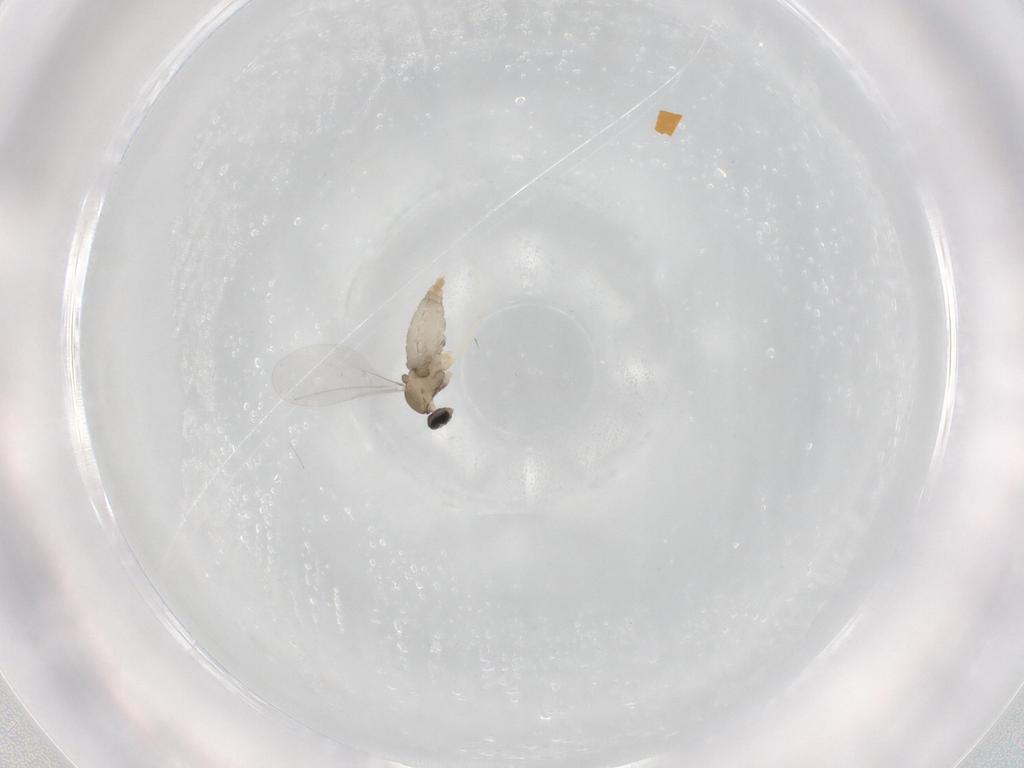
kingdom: Animalia
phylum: Arthropoda
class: Insecta
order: Diptera
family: Cecidomyiidae
